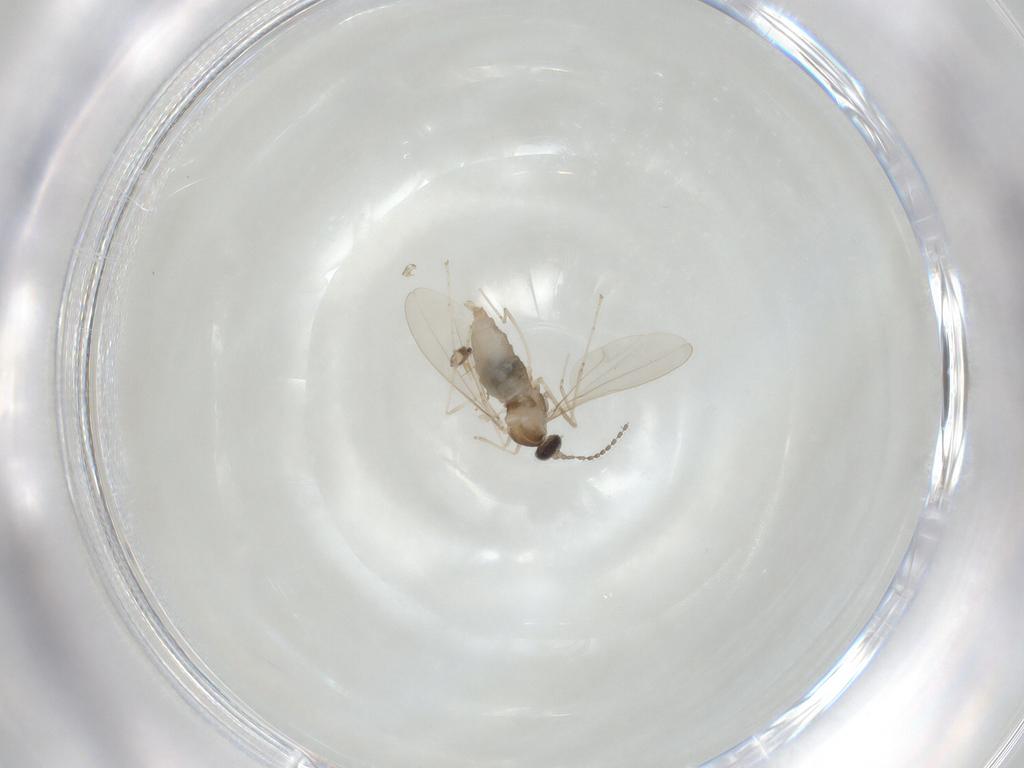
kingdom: Animalia
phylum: Arthropoda
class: Insecta
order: Diptera
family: Cecidomyiidae
